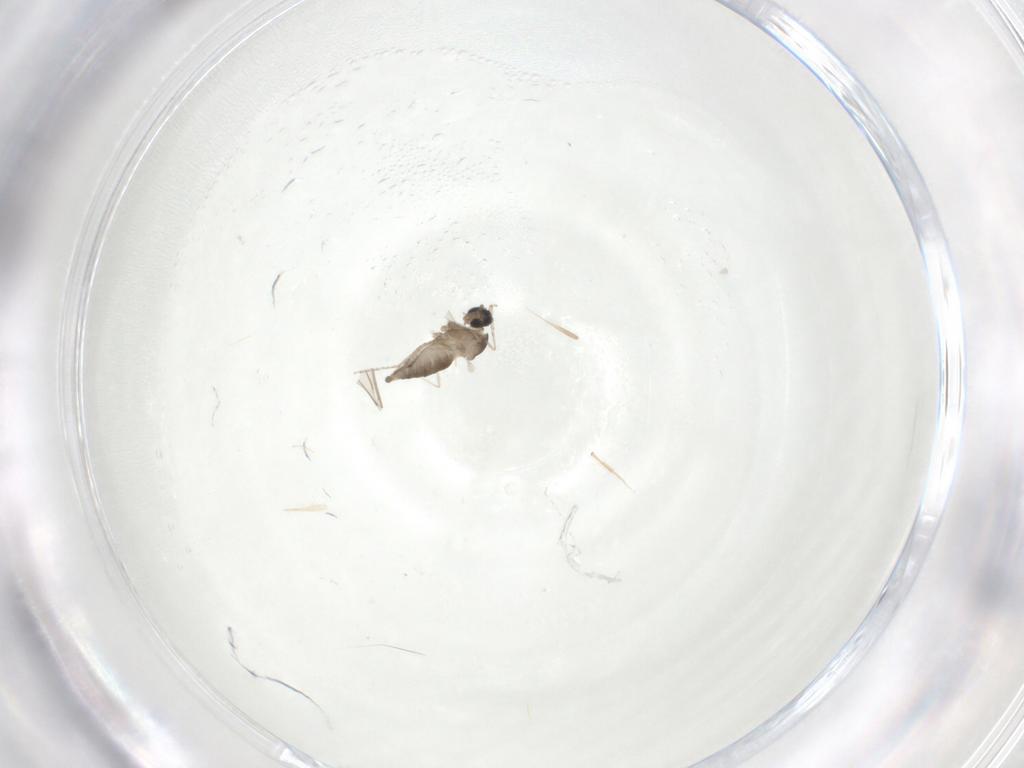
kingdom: Animalia
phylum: Arthropoda
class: Insecta
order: Diptera
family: Cecidomyiidae
